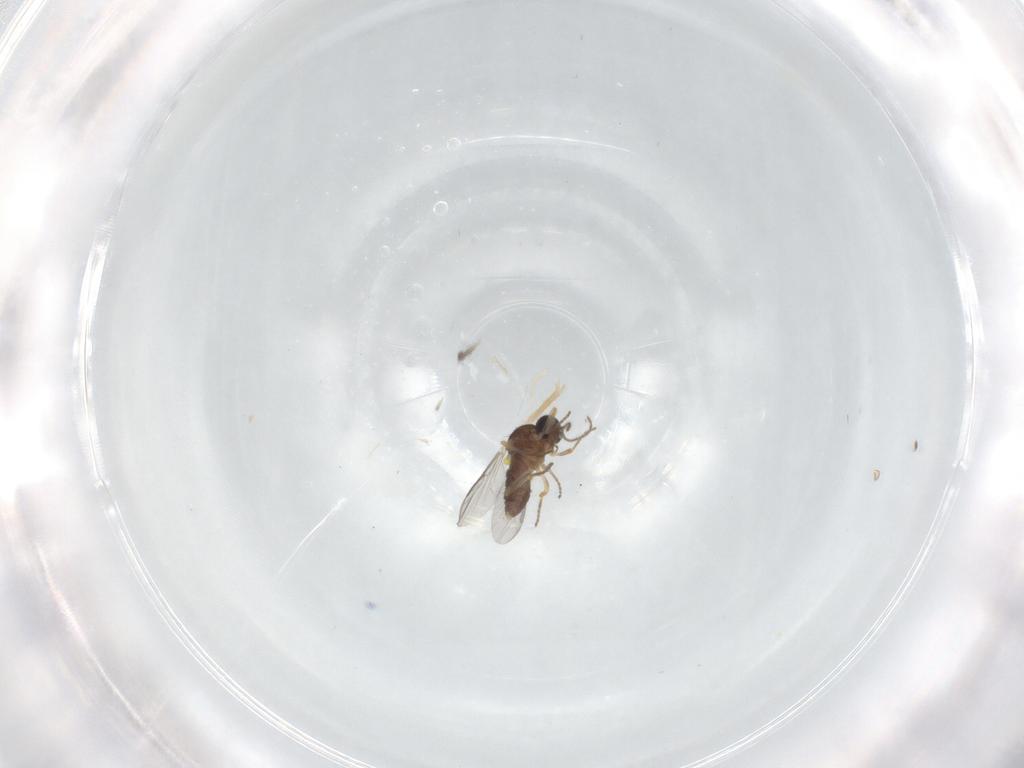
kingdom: Animalia
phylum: Arthropoda
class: Insecta
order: Diptera
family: Ceratopogonidae
